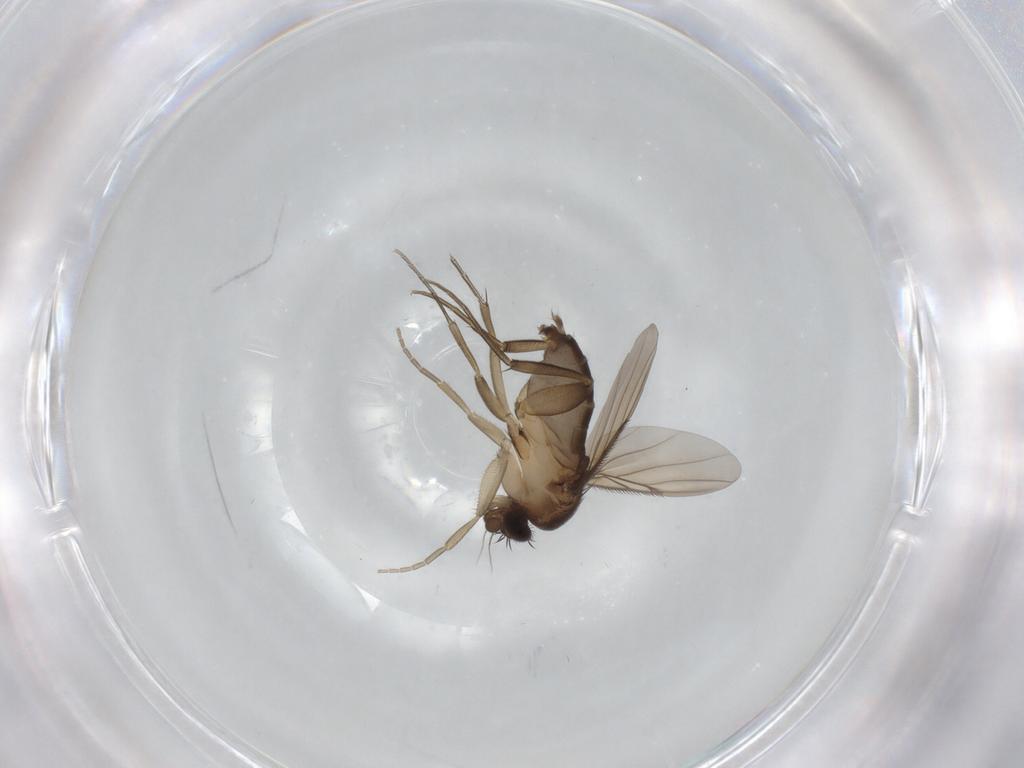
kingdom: Animalia
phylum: Arthropoda
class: Insecta
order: Diptera
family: Phoridae
